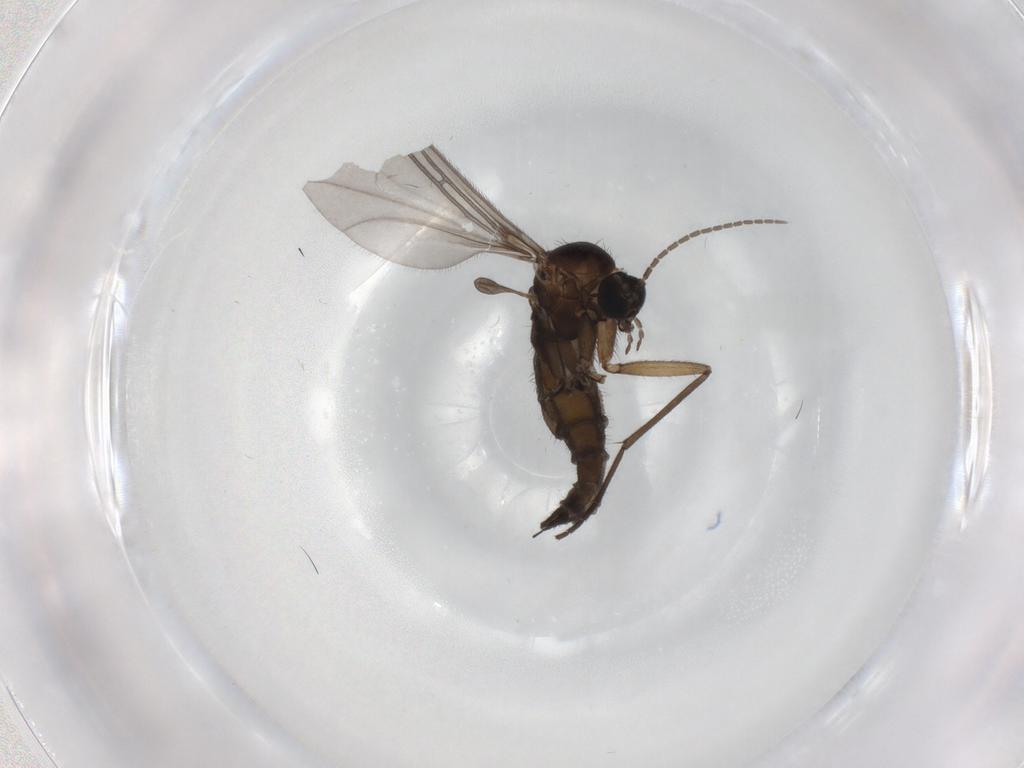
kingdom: Animalia
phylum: Arthropoda
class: Insecta
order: Diptera
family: Sciaridae
